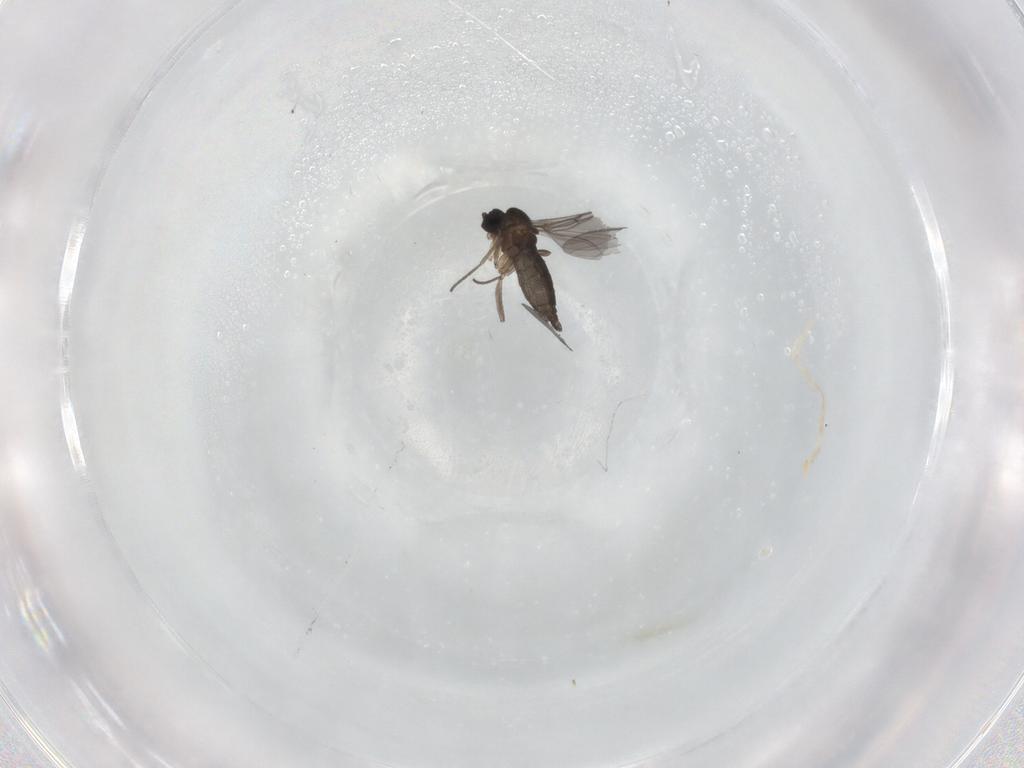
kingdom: Animalia
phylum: Arthropoda
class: Insecta
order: Diptera
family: Sciaridae
